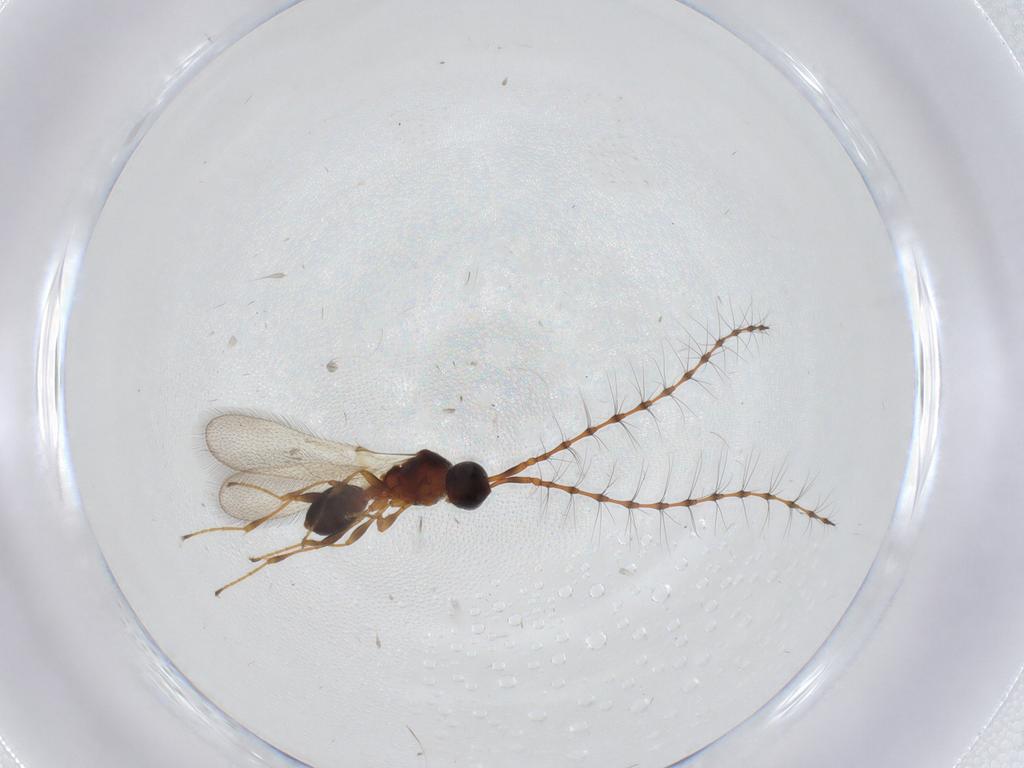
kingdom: Animalia
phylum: Arthropoda
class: Insecta
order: Hymenoptera
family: Diapriidae
